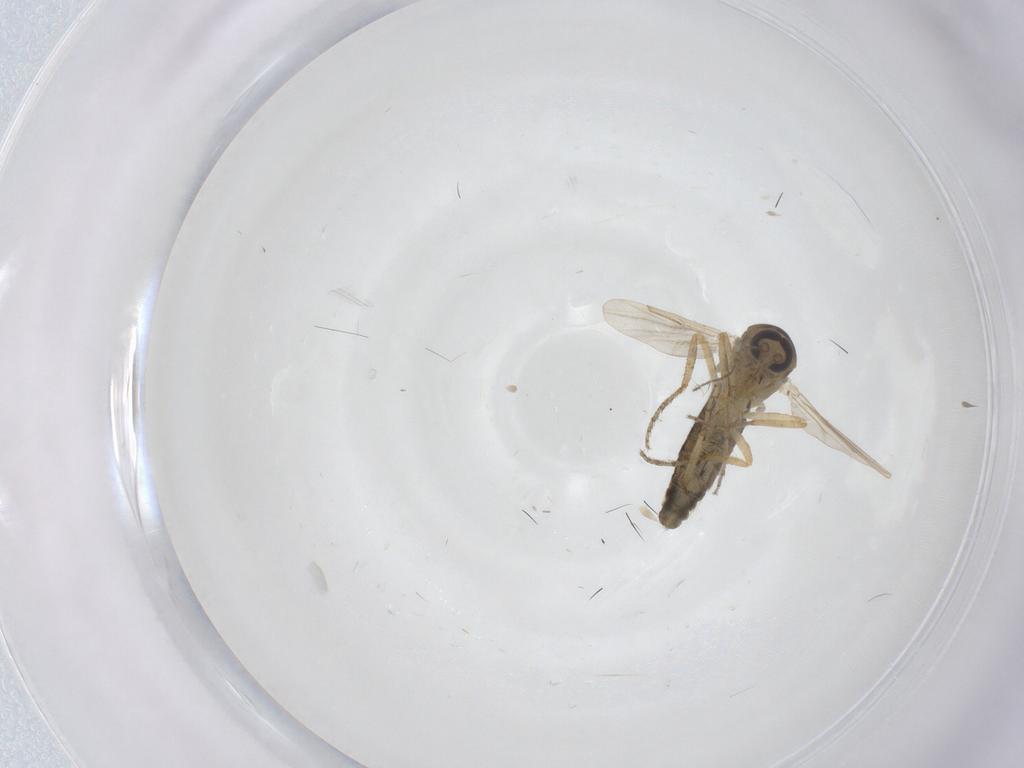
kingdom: Animalia
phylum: Arthropoda
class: Insecta
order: Diptera
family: Ceratopogonidae
